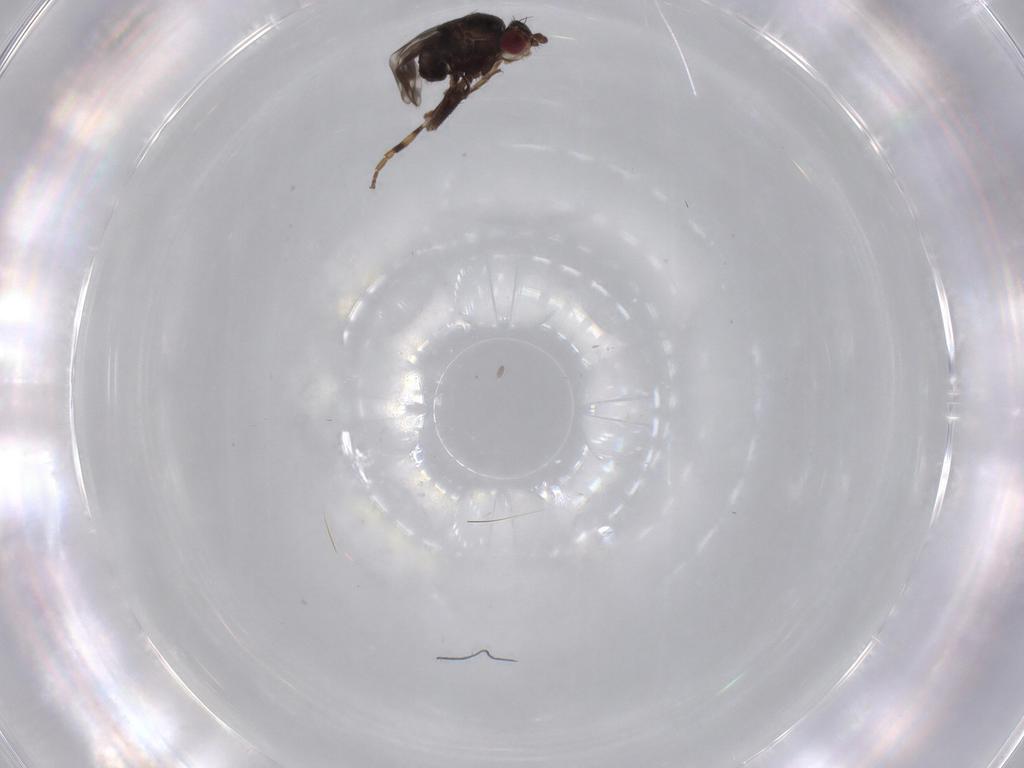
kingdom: Animalia
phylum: Arthropoda
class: Insecta
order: Diptera
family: Sphaeroceridae
